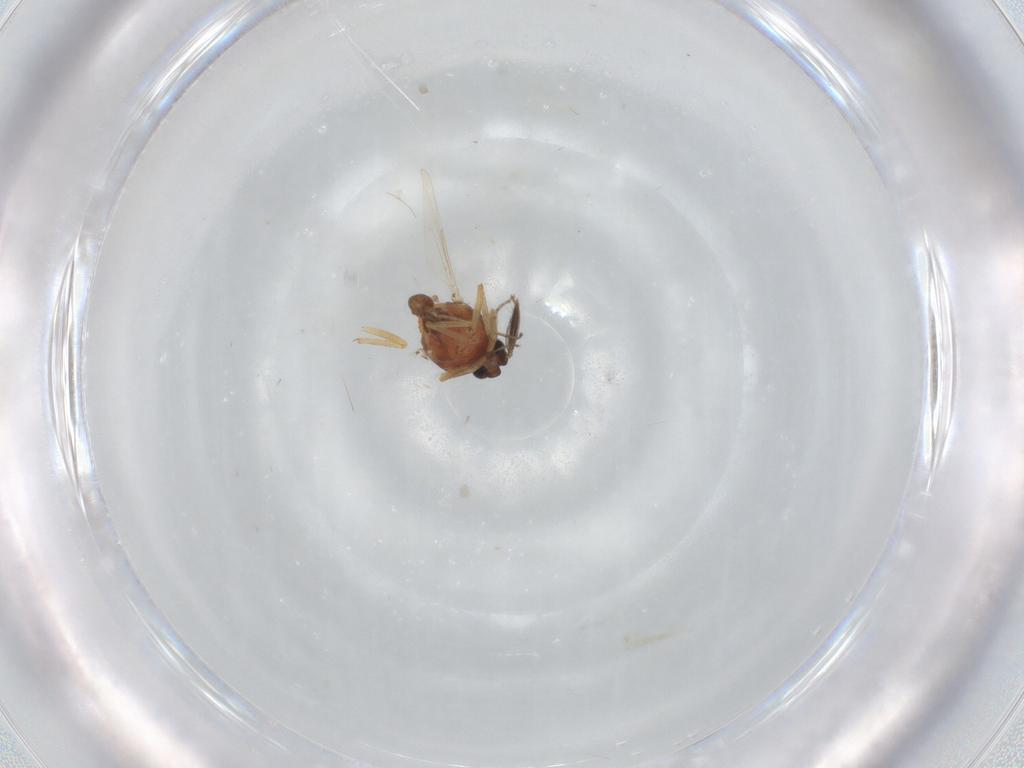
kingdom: Animalia
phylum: Arthropoda
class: Insecta
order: Diptera
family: Ceratopogonidae
